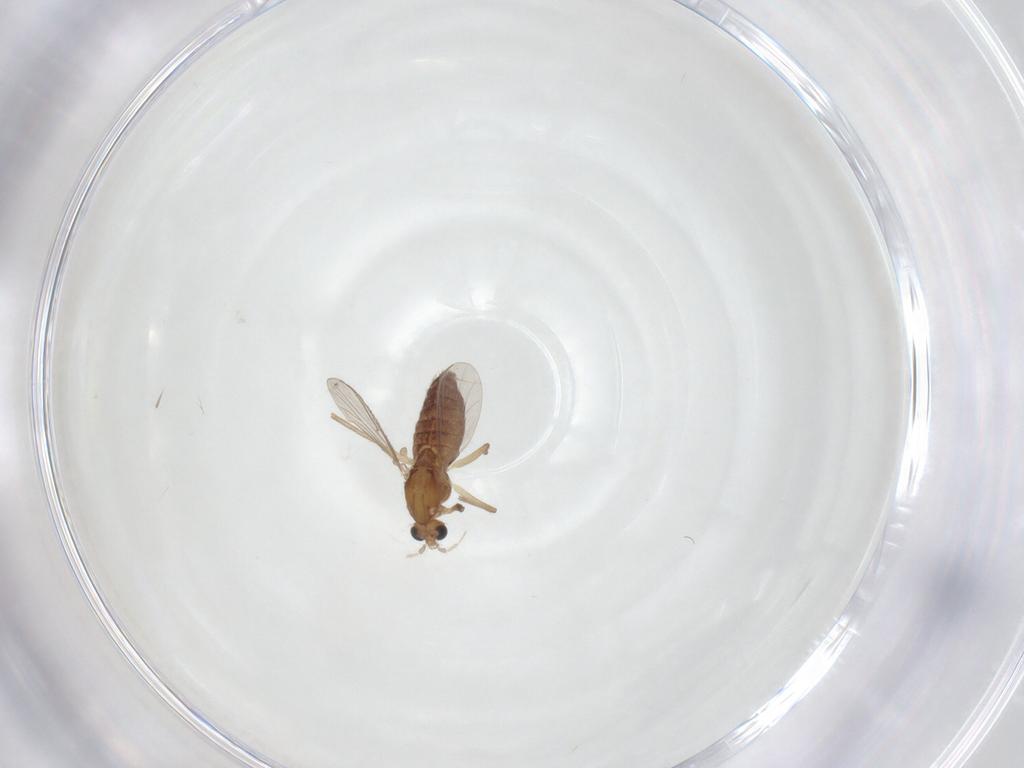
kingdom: Animalia
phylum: Arthropoda
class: Insecta
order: Diptera
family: Chironomidae
